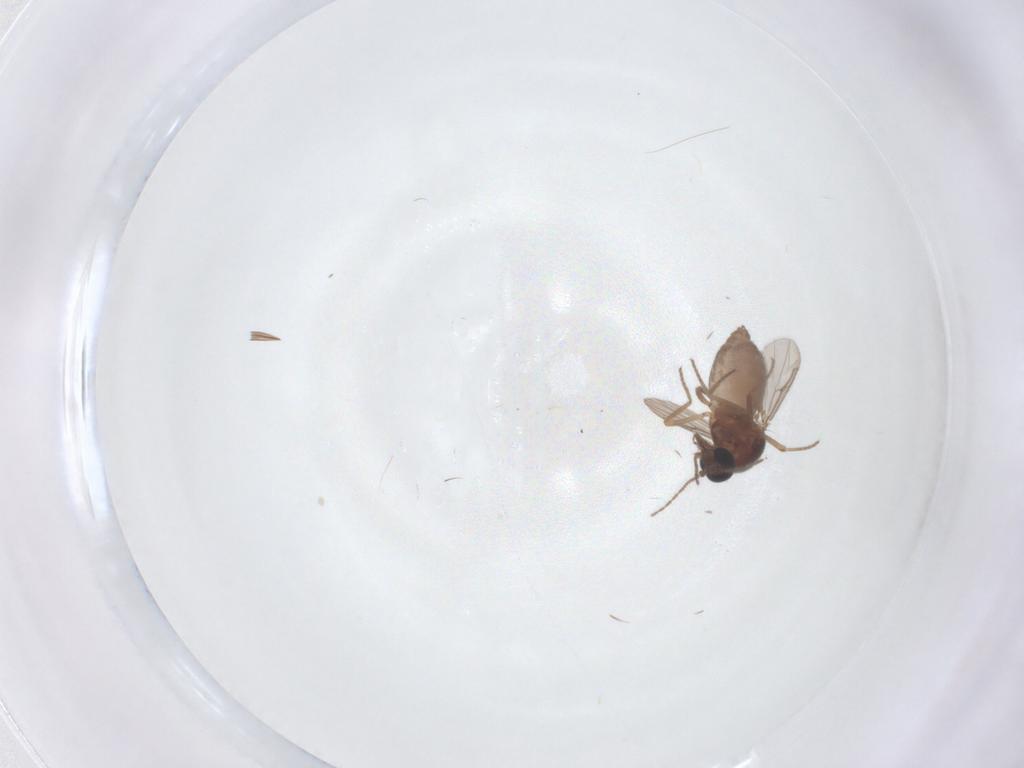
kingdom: Animalia
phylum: Arthropoda
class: Insecta
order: Diptera
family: Ceratopogonidae
